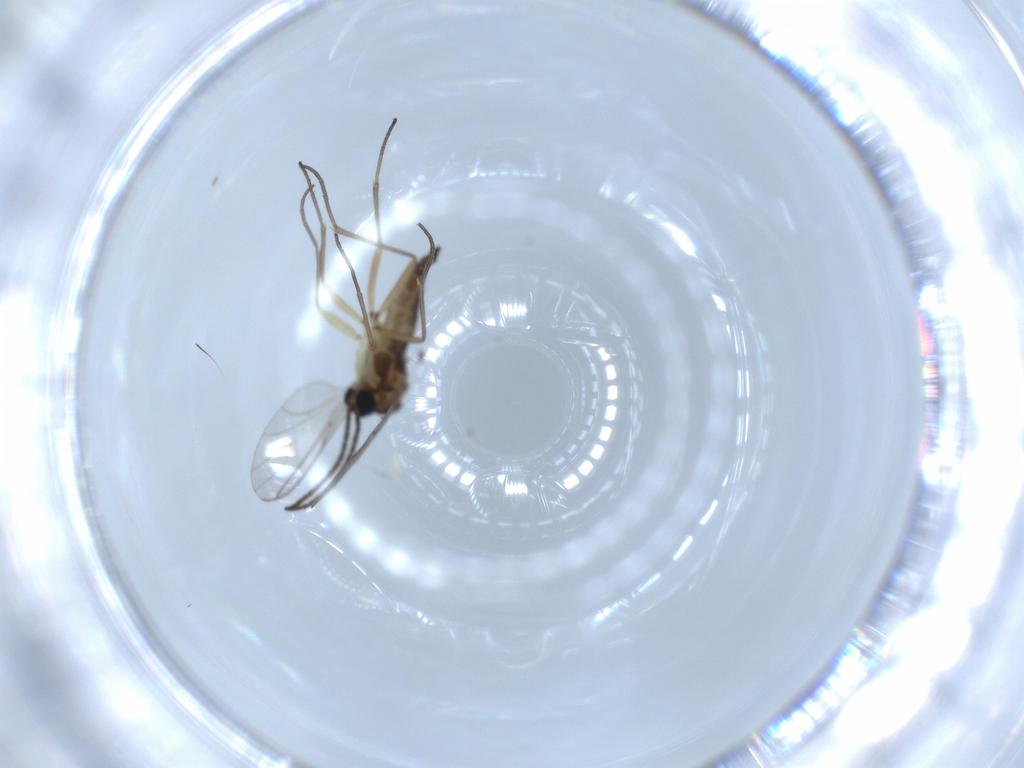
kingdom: Animalia
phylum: Arthropoda
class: Insecta
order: Diptera
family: Sciaridae
